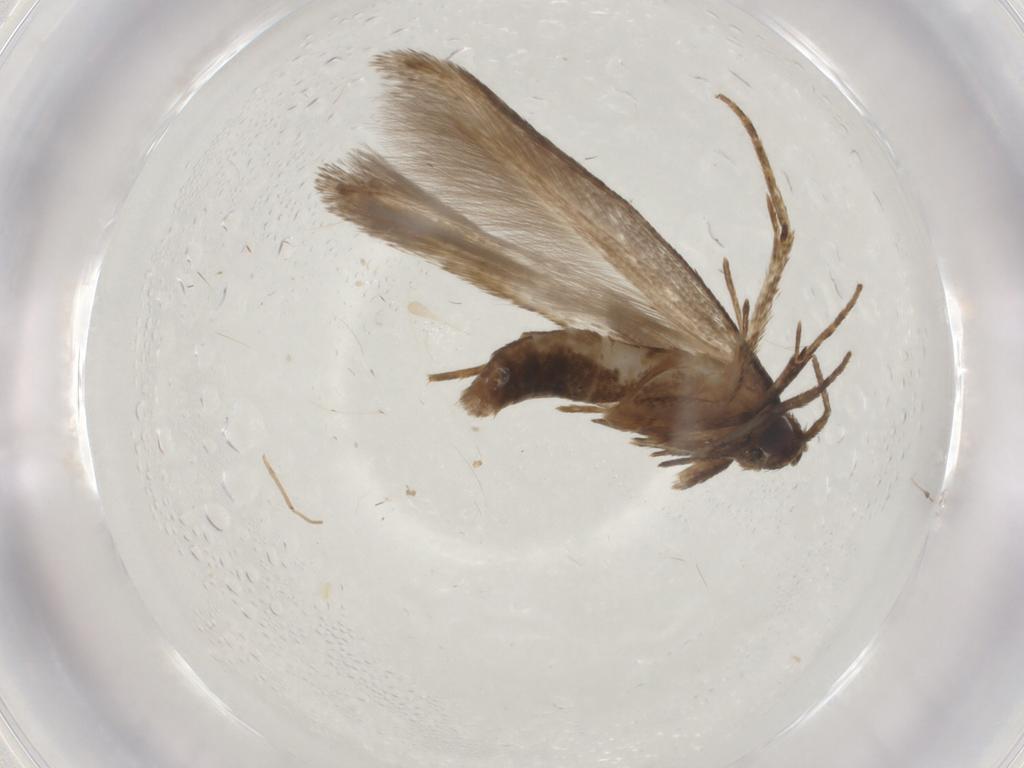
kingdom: Animalia
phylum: Arthropoda
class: Insecta
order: Lepidoptera
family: Cosmopterigidae
